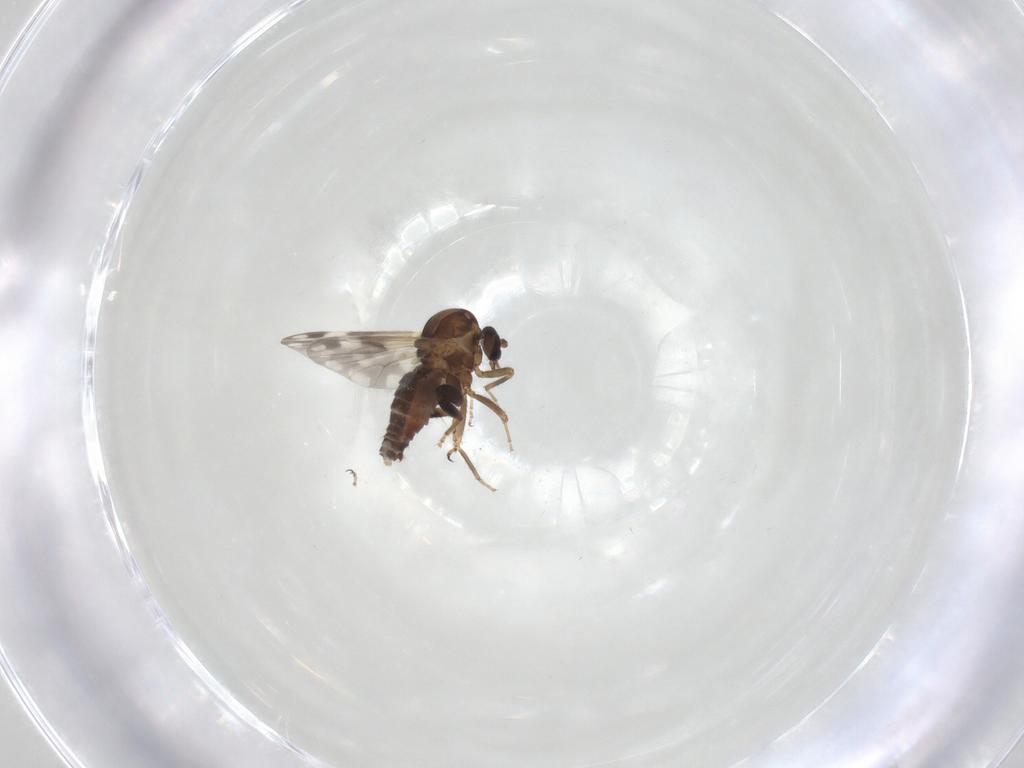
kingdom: Animalia
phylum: Arthropoda
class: Insecta
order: Diptera
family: Ceratopogonidae
